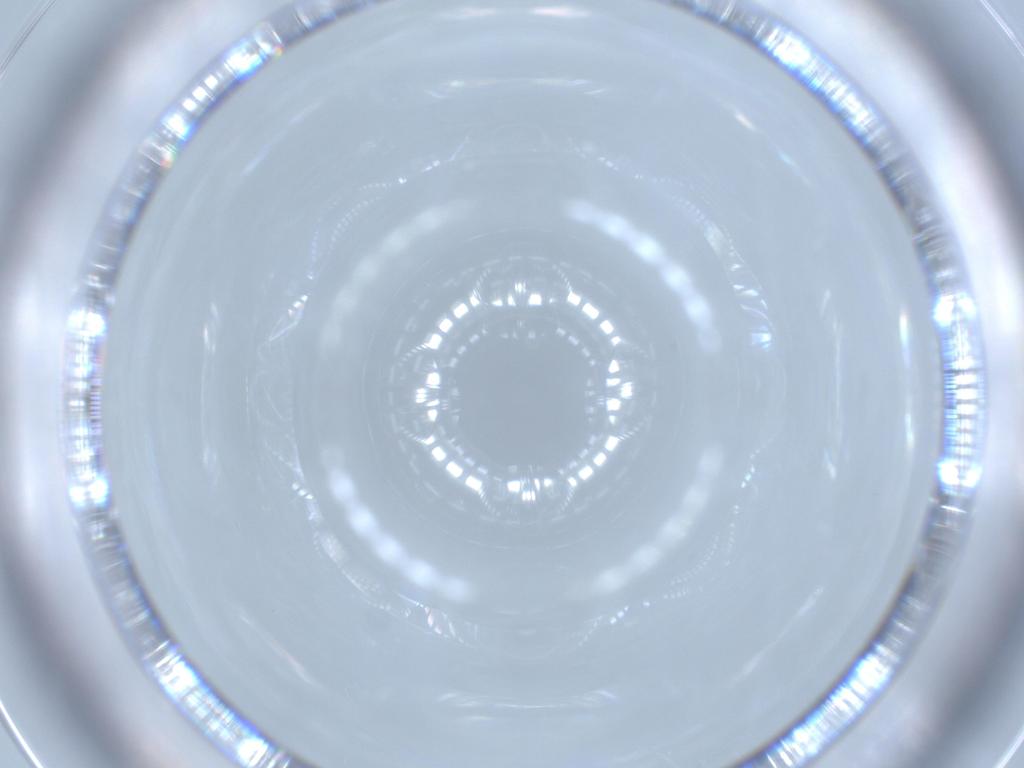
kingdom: Animalia
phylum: Arthropoda
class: Insecta
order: Diptera
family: Cecidomyiidae
